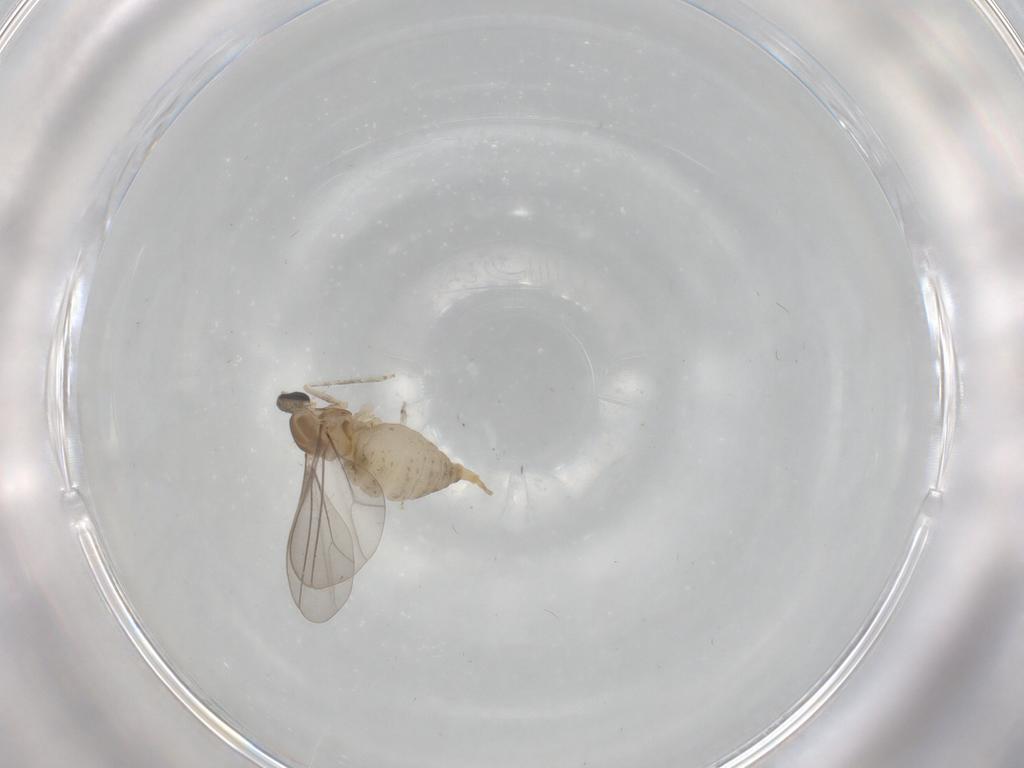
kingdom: Animalia
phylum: Arthropoda
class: Insecta
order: Diptera
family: Cecidomyiidae
